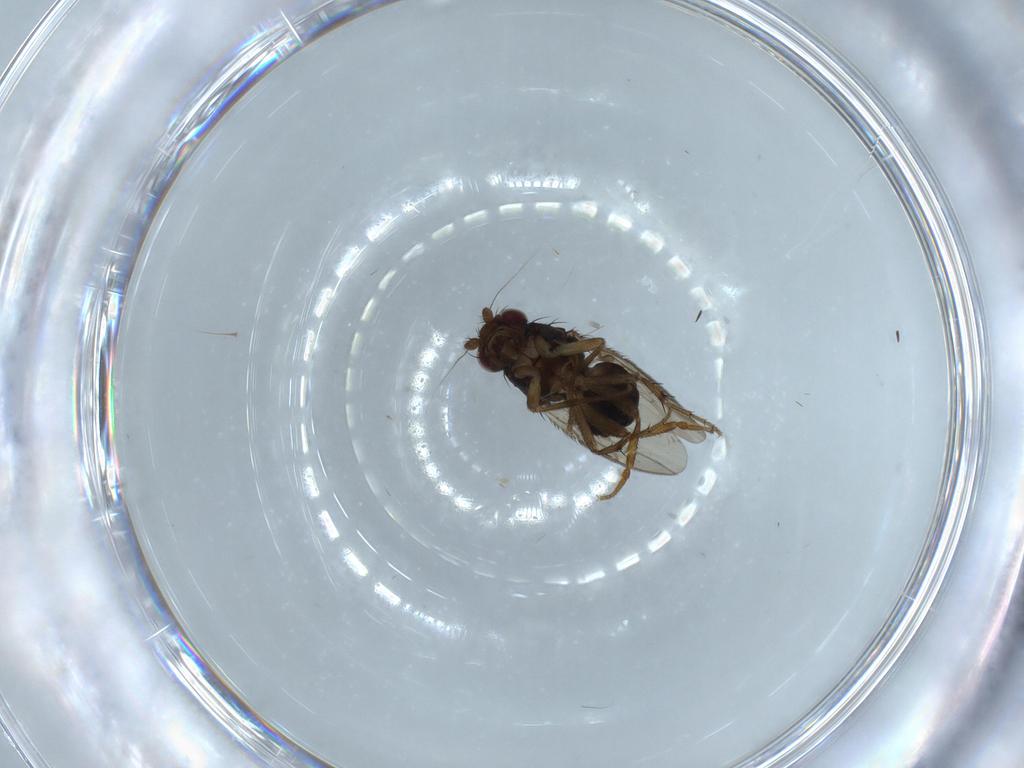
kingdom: Animalia
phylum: Arthropoda
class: Insecta
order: Diptera
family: Sphaeroceridae
